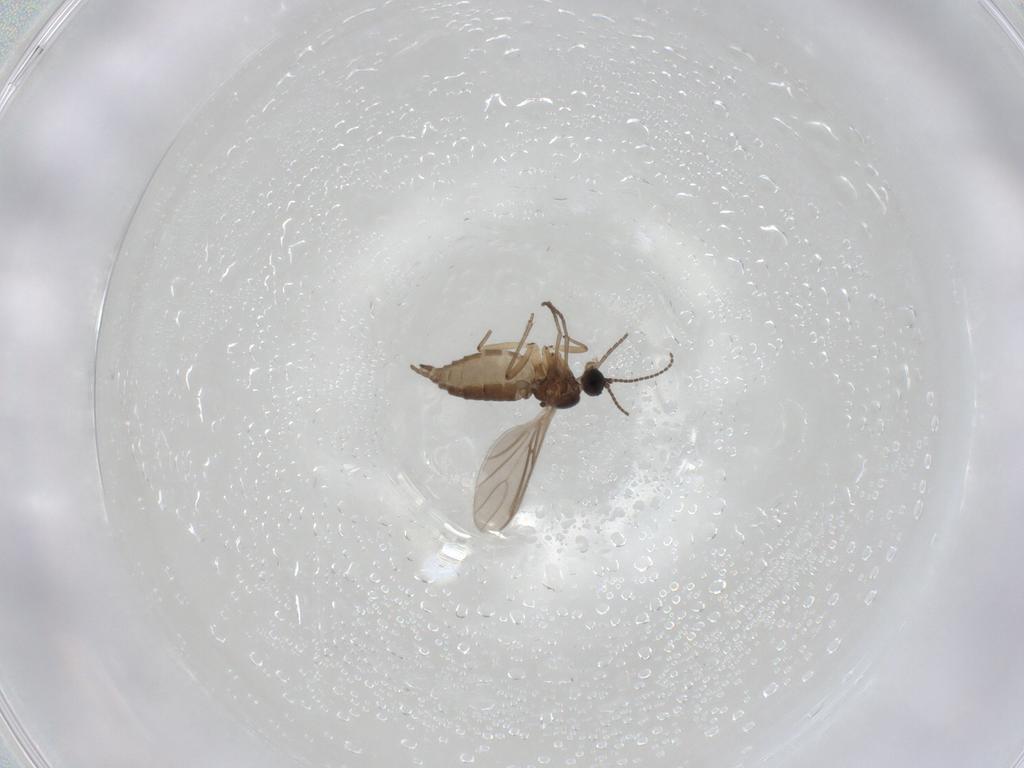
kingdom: Animalia
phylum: Arthropoda
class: Insecta
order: Diptera
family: Sciaridae
